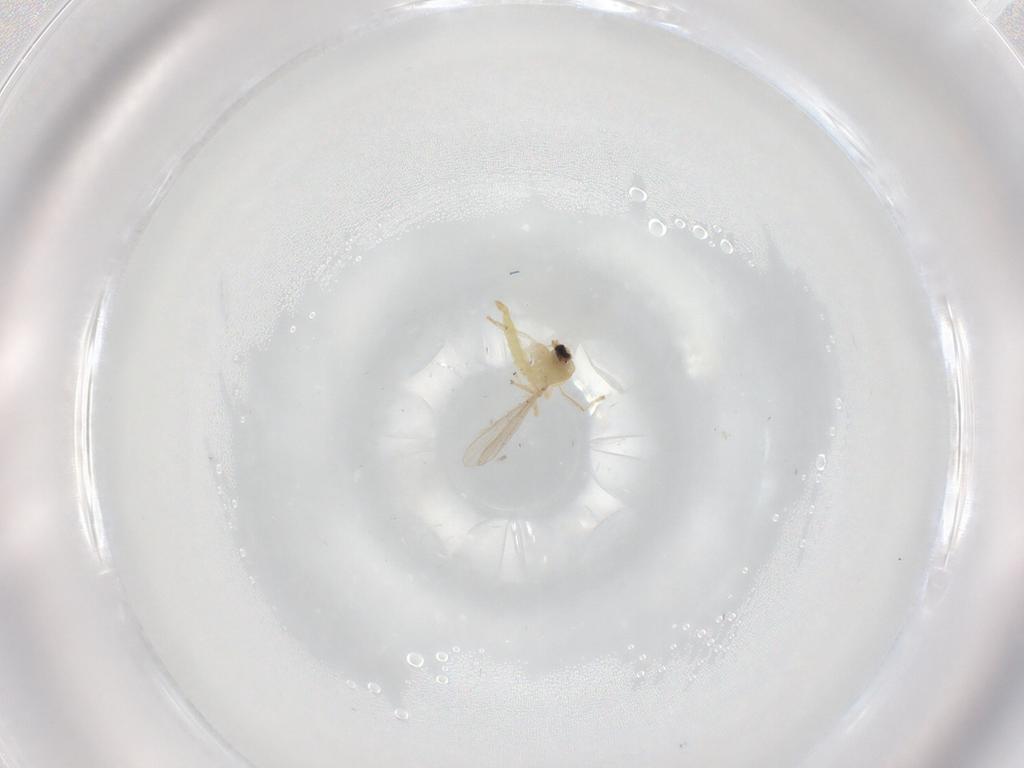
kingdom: Animalia
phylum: Arthropoda
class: Insecta
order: Diptera
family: Chironomidae
